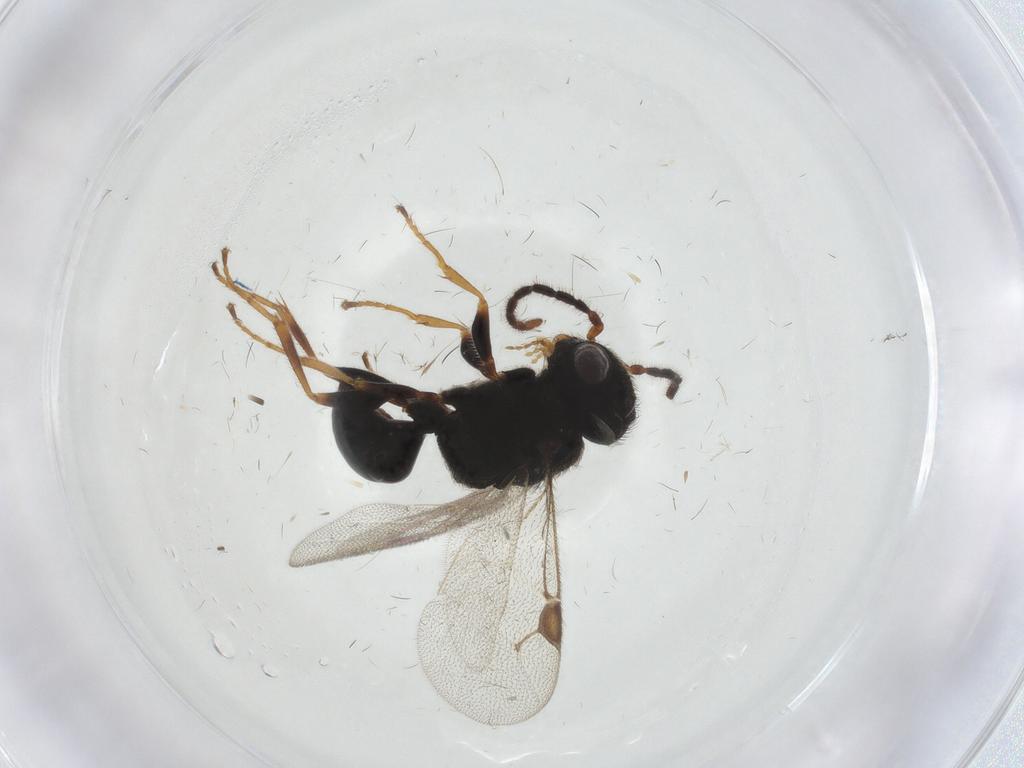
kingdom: Animalia
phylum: Arthropoda
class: Insecta
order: Hymenoptera
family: Dryinidae
